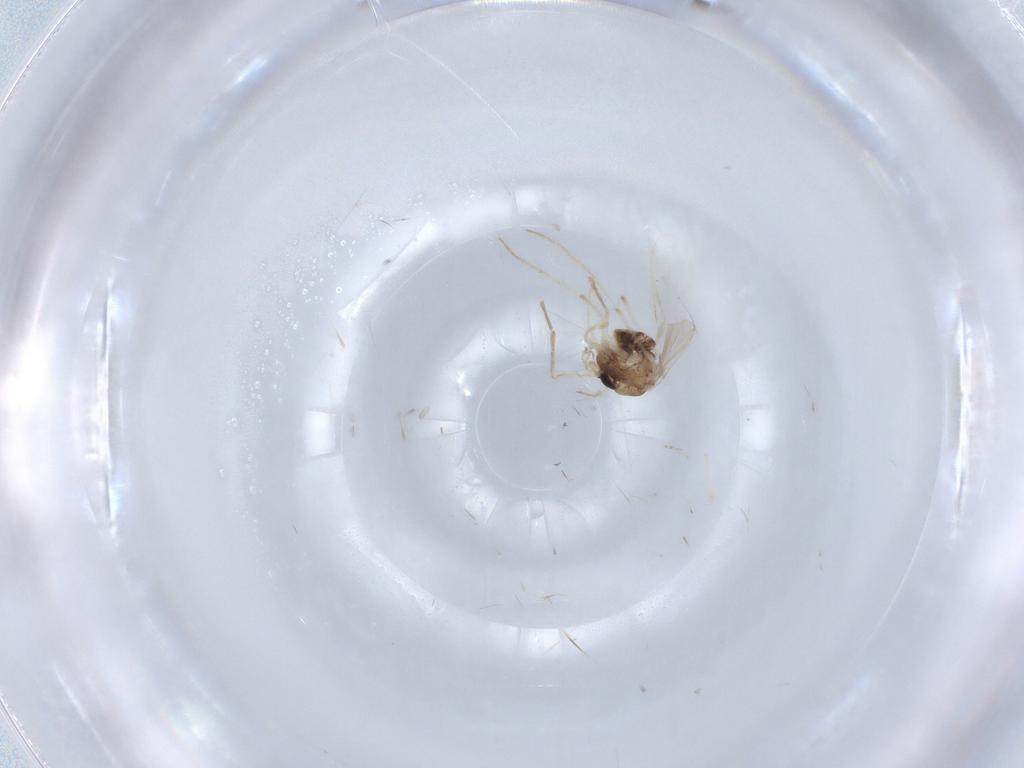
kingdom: Animalia
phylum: Arthropoda
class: Insecta
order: Diptera
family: Chironomidae
